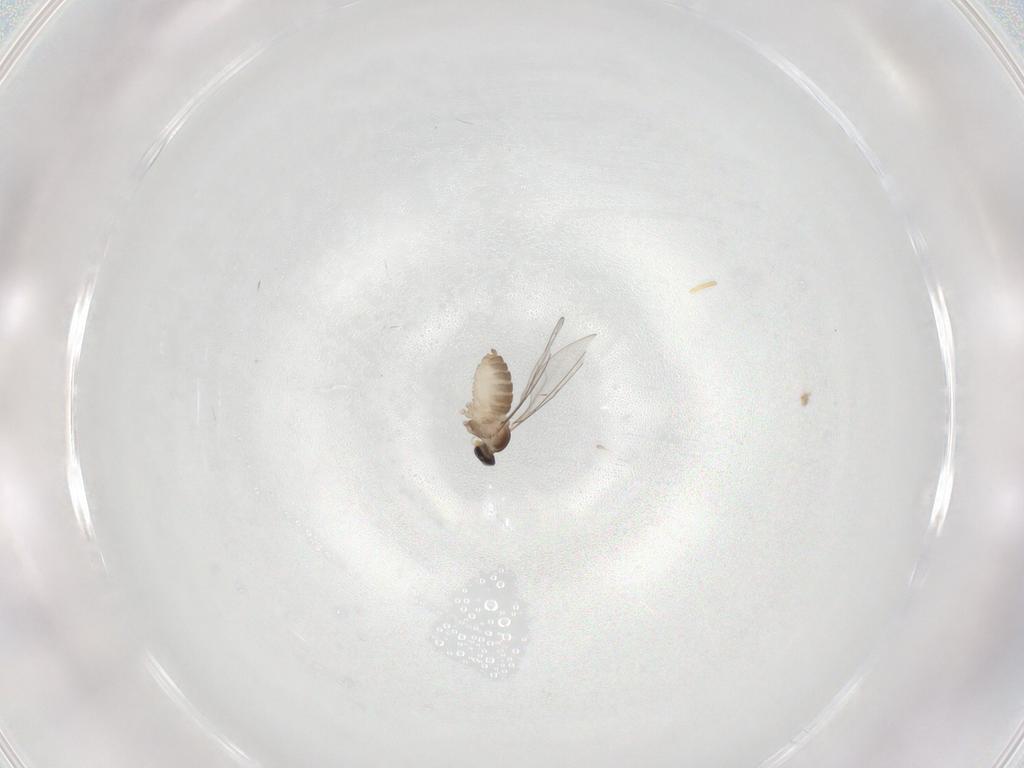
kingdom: Animalia
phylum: Arthropoda
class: Insecta
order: Diptera
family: Cecidomyiidae
